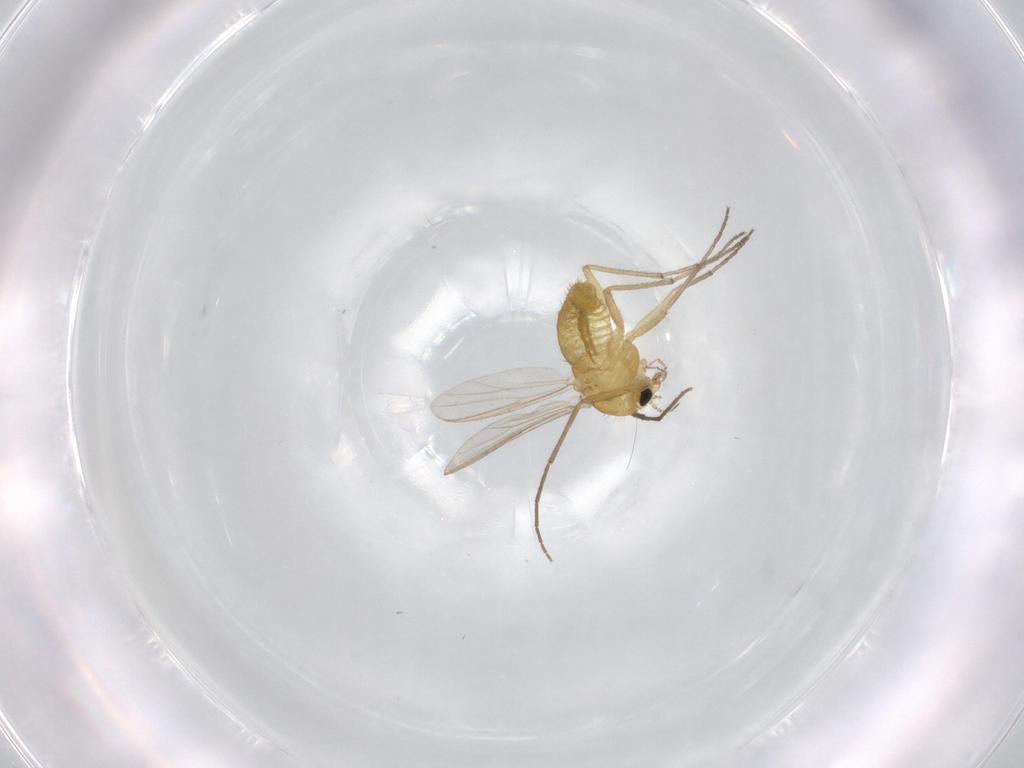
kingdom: Animalia
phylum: Arthropoda
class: Insecta
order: Diptera
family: Chironomidae
